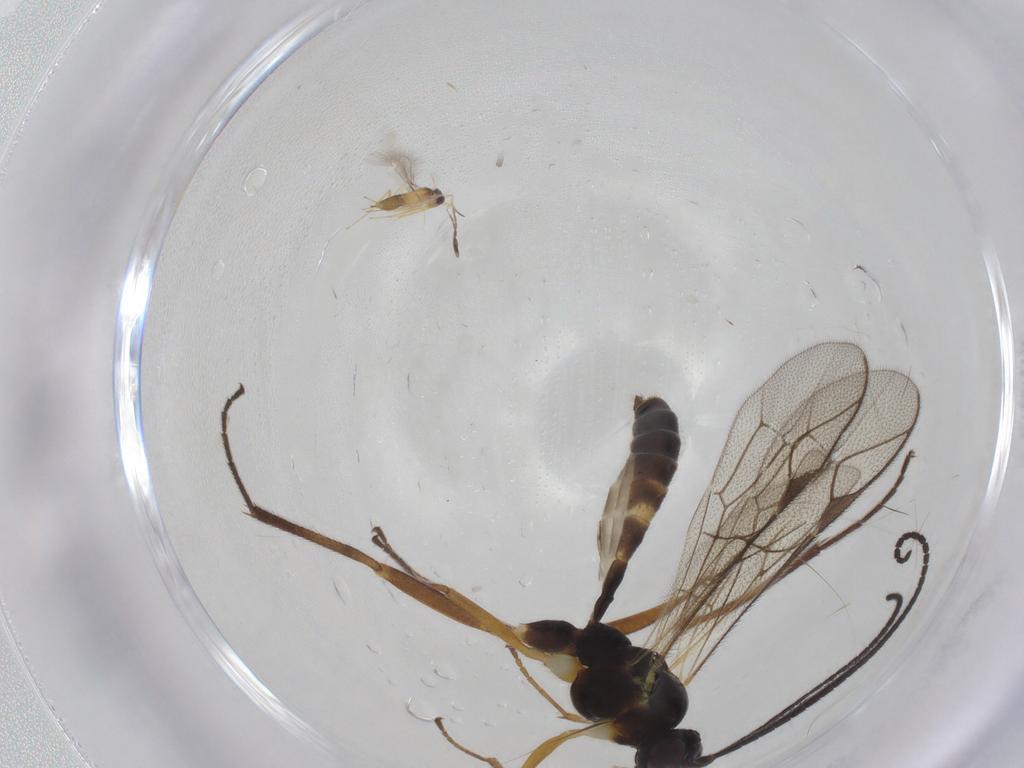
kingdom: Animalia
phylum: Arthropoda
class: Insecta
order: Hymenoptera
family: Mymaridae
